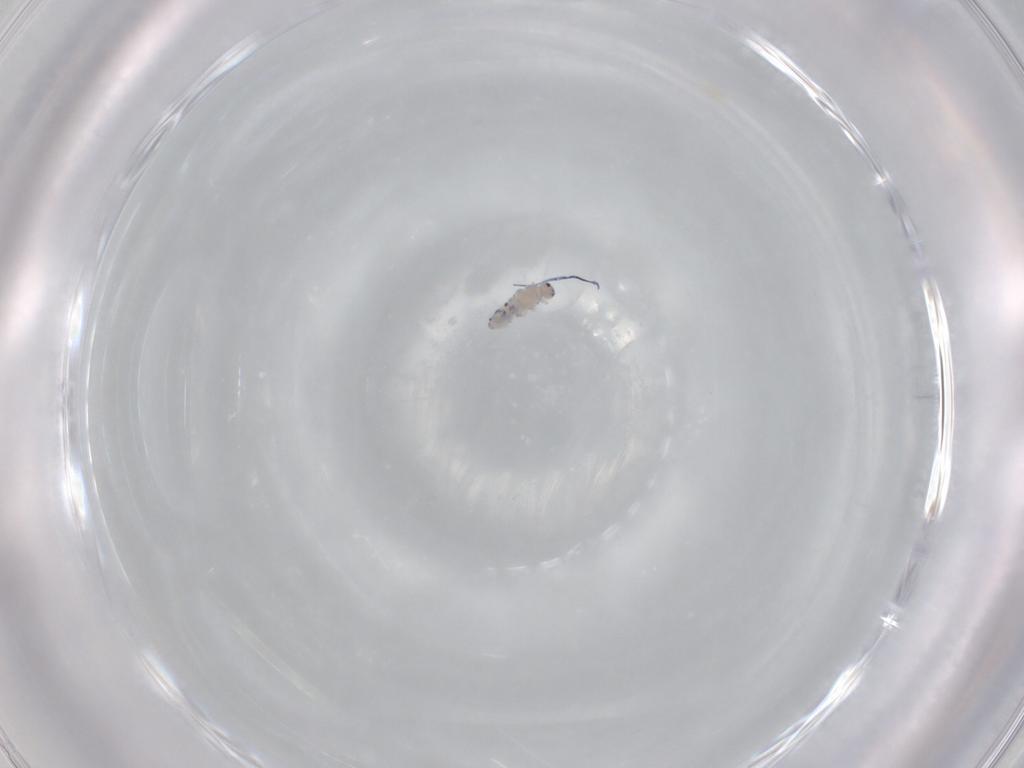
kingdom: Animalia
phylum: Arthropoda
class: Collembola
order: Entomobryomorpha
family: Entomobryidae
